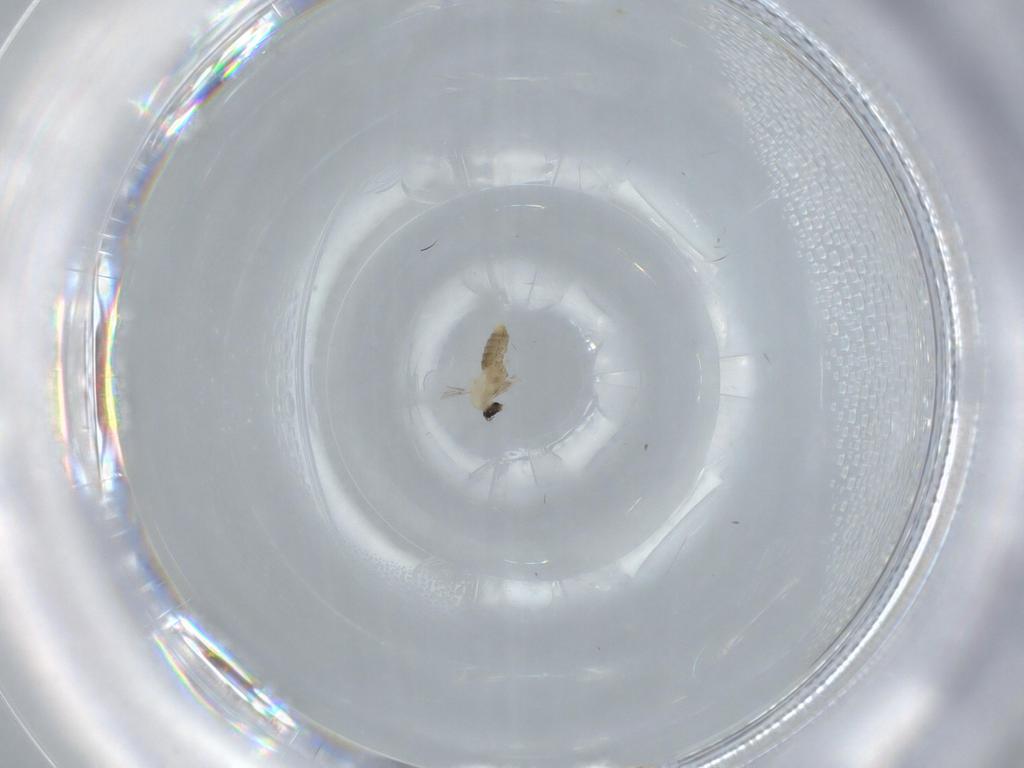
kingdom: Animalia
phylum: Arthropoda
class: Insecta
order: Diptera
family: Cecidomyiidae
